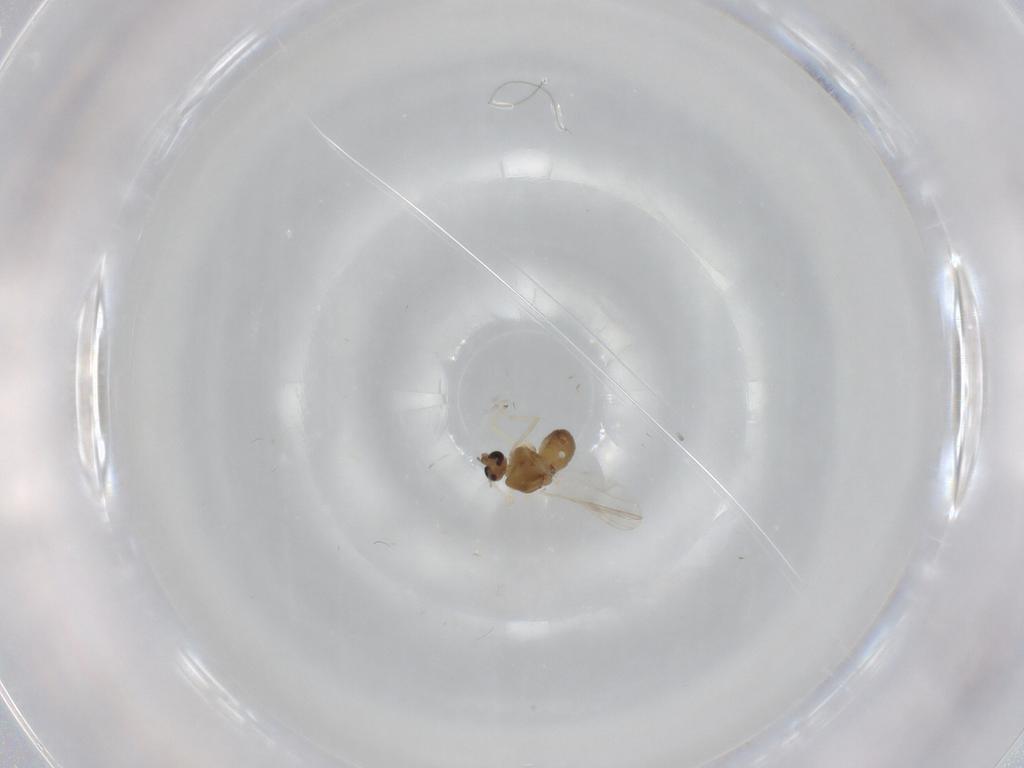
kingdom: Animalia
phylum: Arthropoda
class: Insecta
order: Diptera
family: Chironomidae
